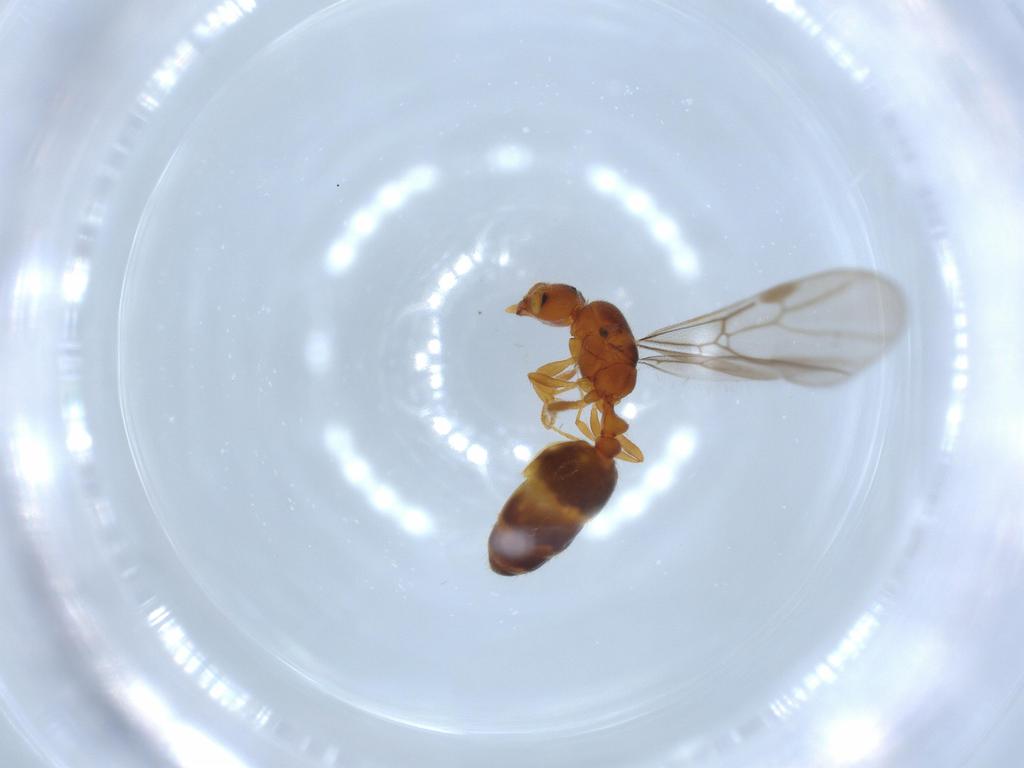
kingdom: Animalia
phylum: Arthropoda
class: Insecta
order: Hymenoptera
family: Formicidae
